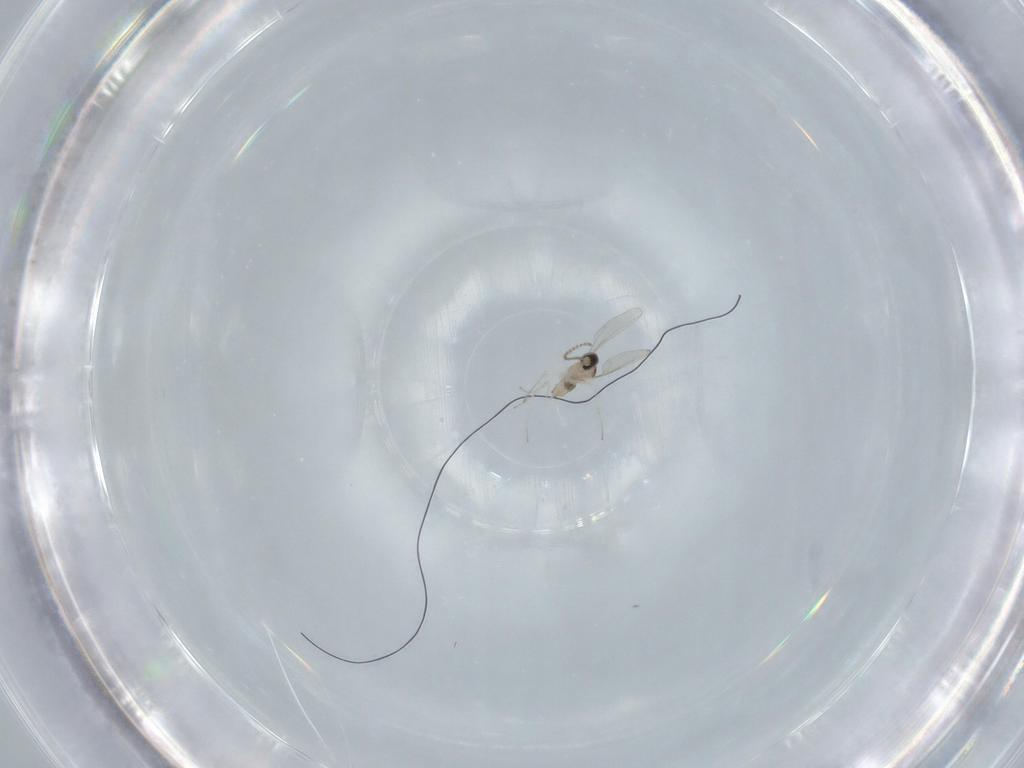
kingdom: Animalia
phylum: Arthropoda
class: Insecta
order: Diptera
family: Cecidomyiidae
